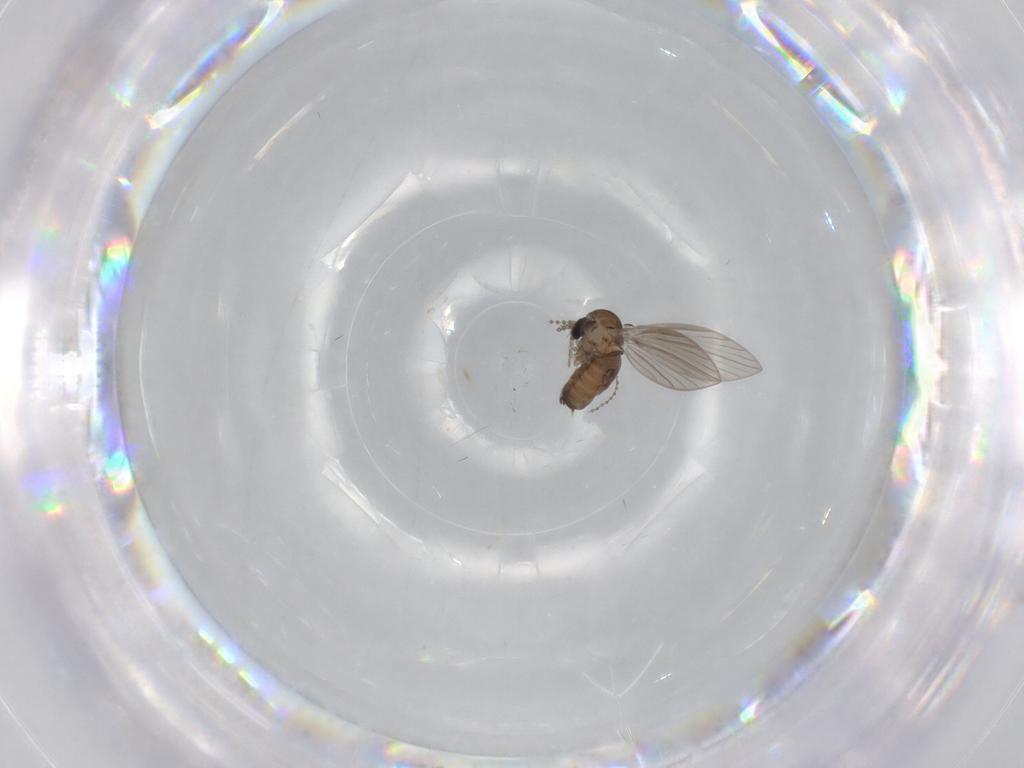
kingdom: Animalia
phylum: Arthropoda
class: Insecta
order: Diptera
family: Psychodidae
